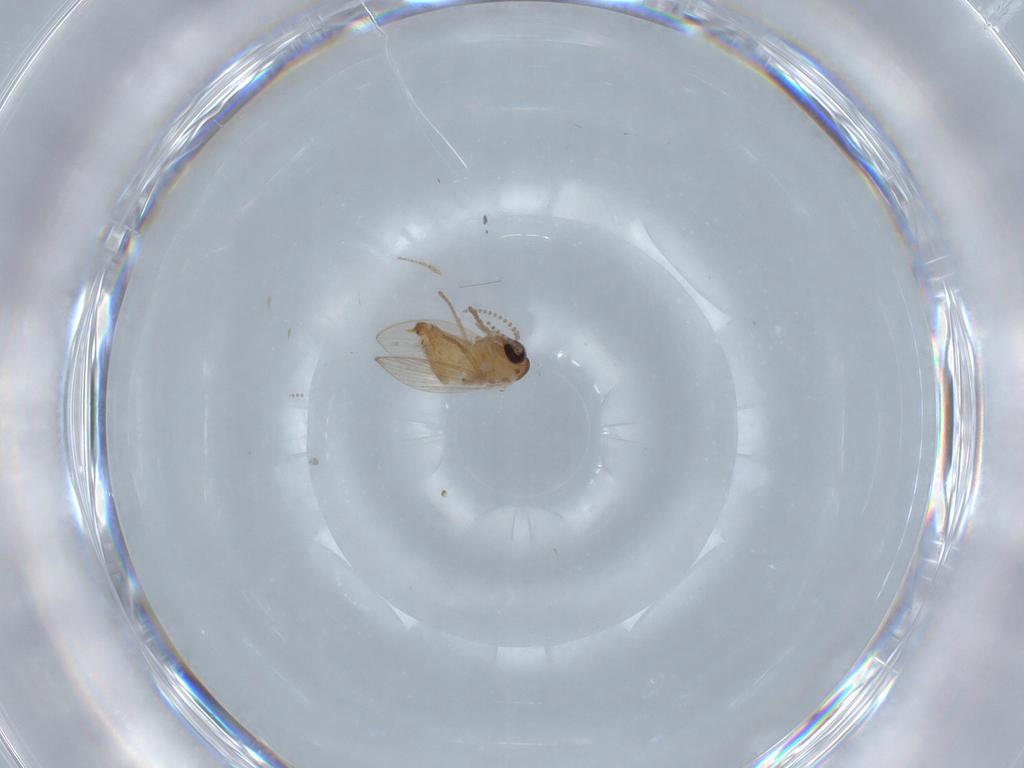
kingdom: Animalia
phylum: Arthropoda
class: Insecta
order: Diptera
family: Psychodidae
